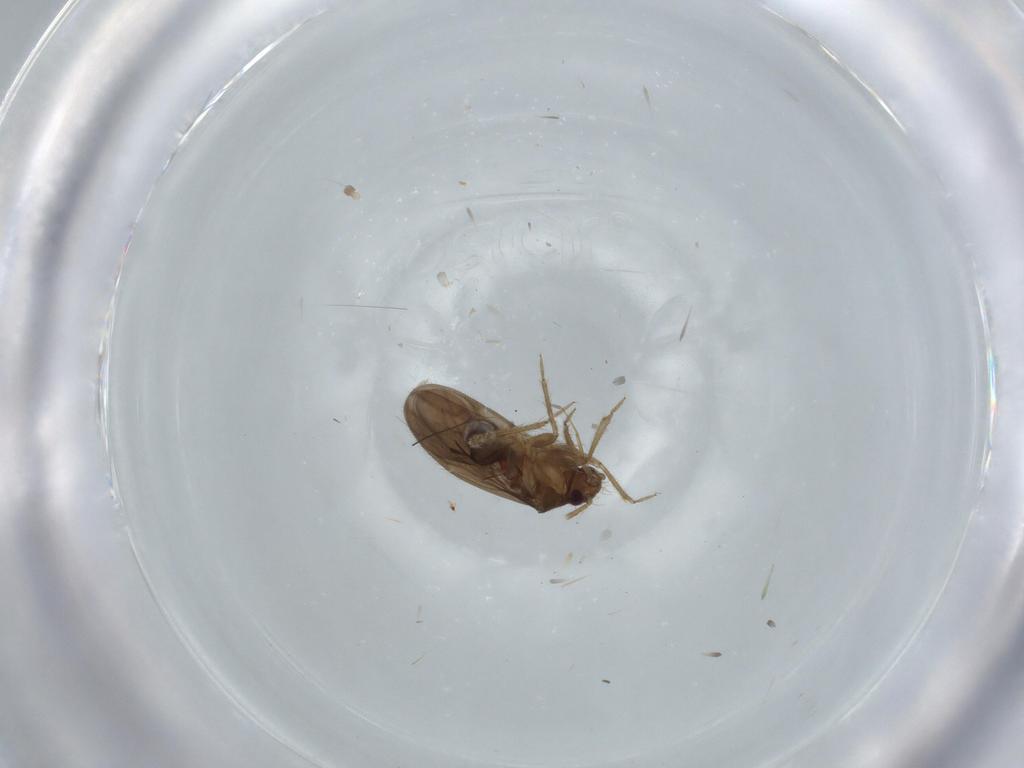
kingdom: Animalia
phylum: Arthropoda
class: Insecta
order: Hemiptera
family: Ceratocombidae
